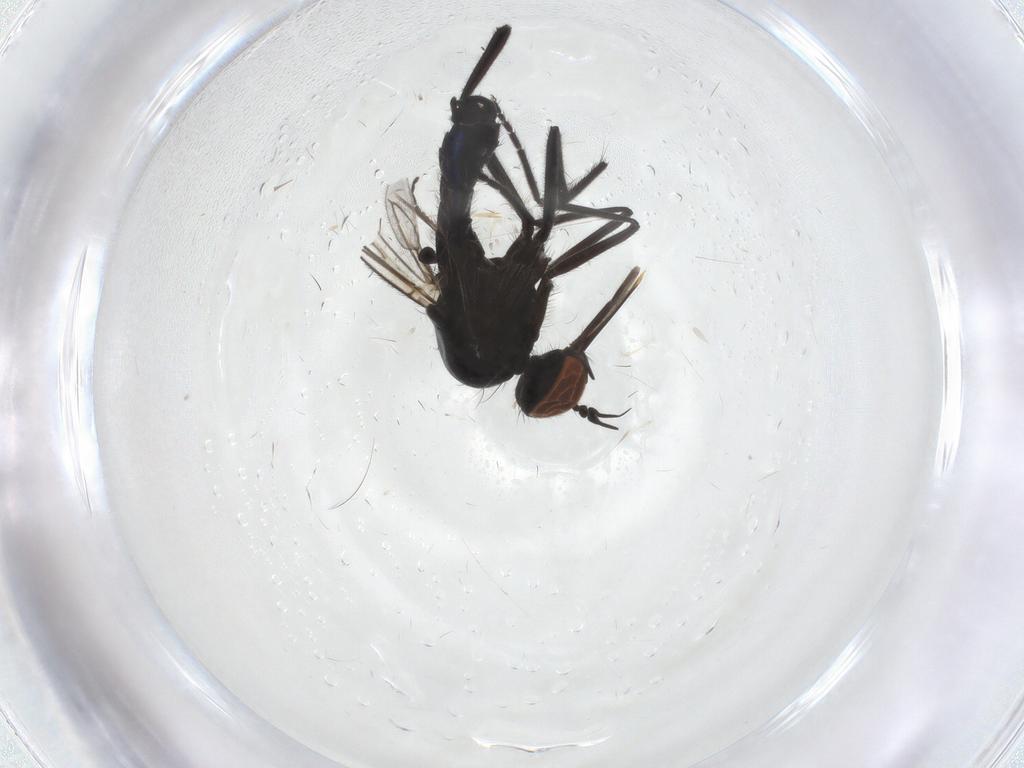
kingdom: Animalia
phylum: Arthropoda
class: Insecta
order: Diptera
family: Empididae
